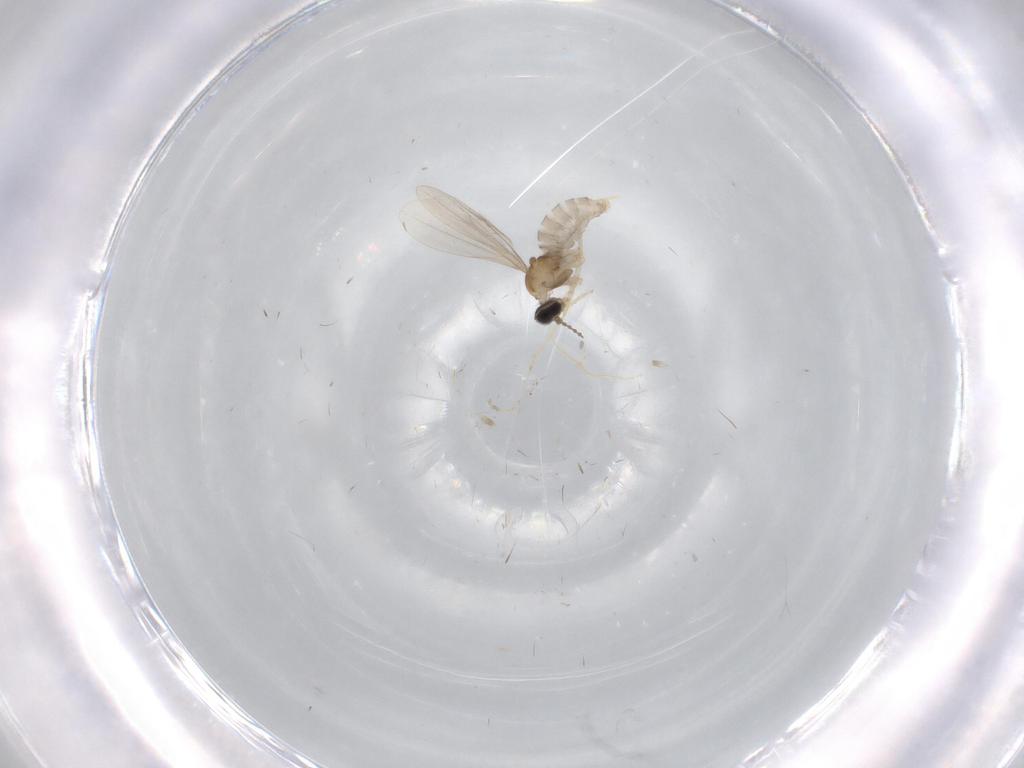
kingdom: Animalia
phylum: Arthropoda
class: Insecta
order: Diptera
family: Cecidomyiidae
